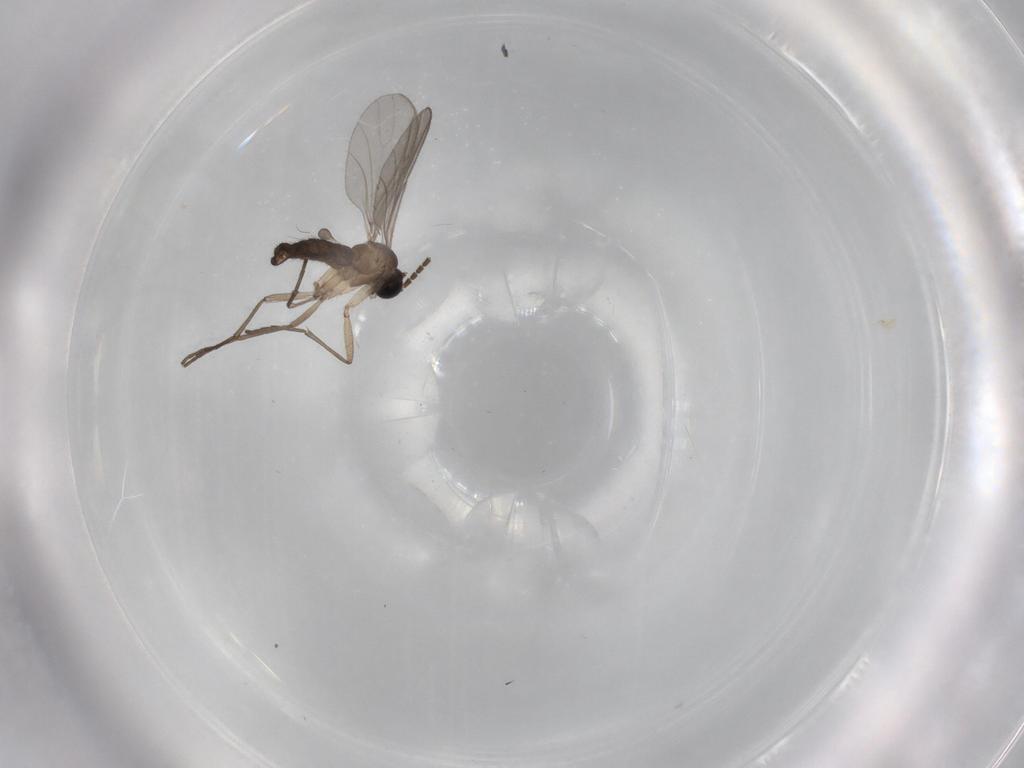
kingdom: Animalia
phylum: Arthropoda
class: Insecta
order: Diptera
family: Sciaridae
